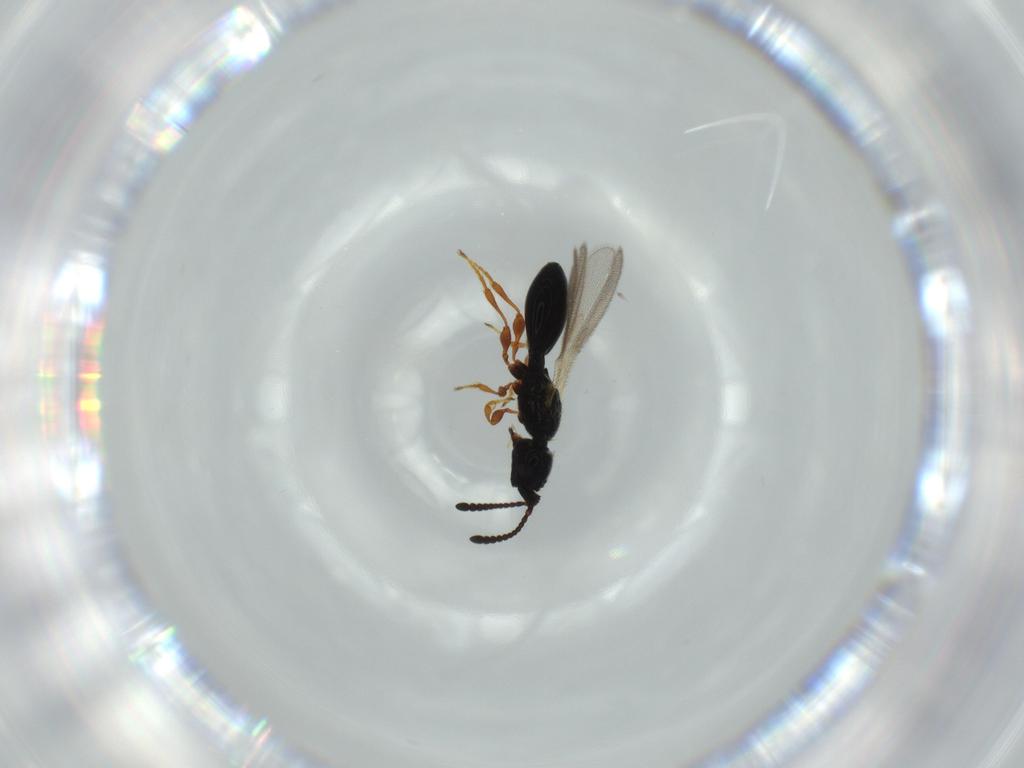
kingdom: Animalia
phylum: Arthropoda
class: Insecta
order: Hymenoptera
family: Diapriidae
